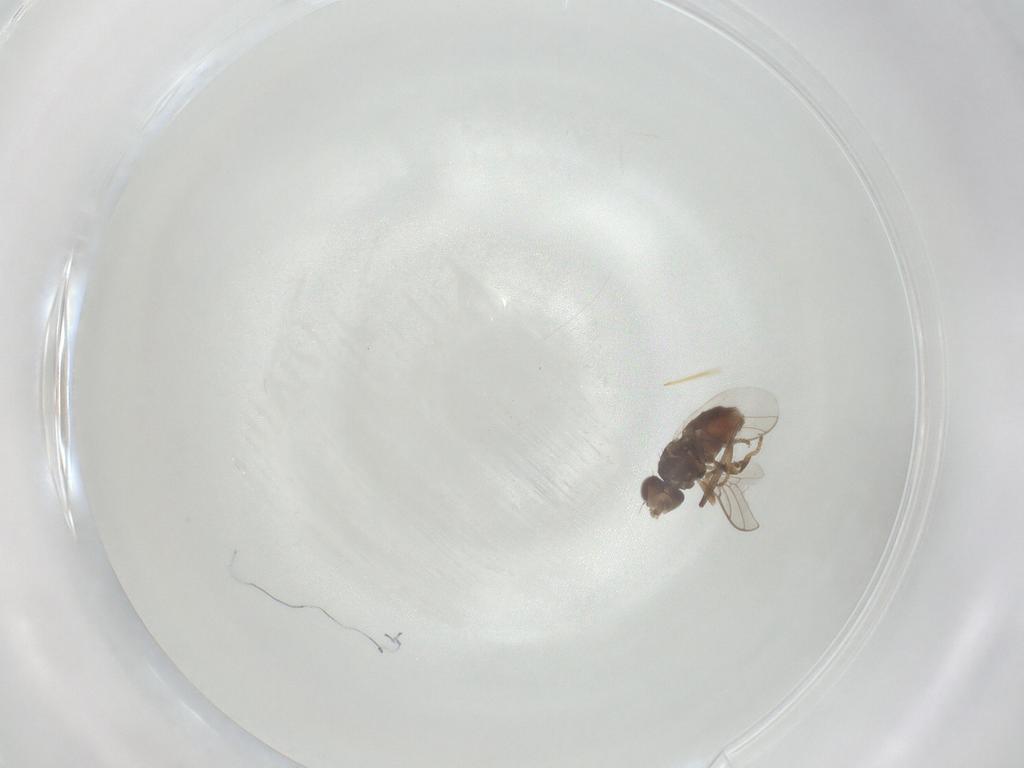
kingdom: Animalia
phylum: Arthropoda
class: Insecta
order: Diptera
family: Chloropidae
